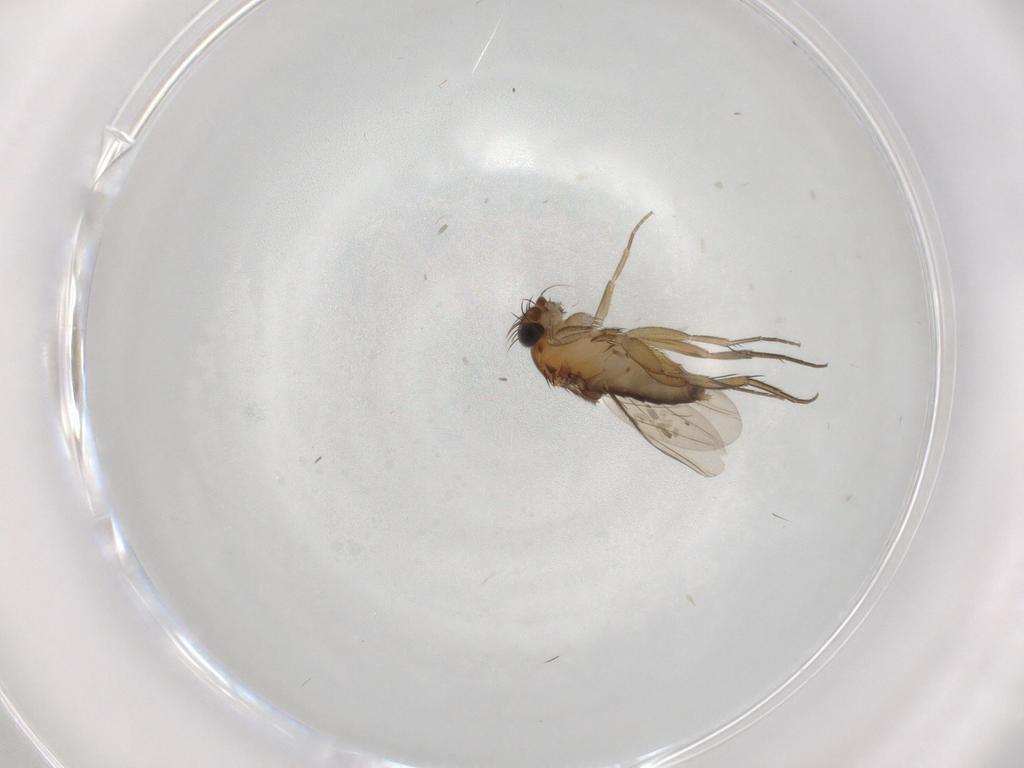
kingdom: Animalia
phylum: Arthropoda
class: Insecta
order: Diptera
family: Phoridae
